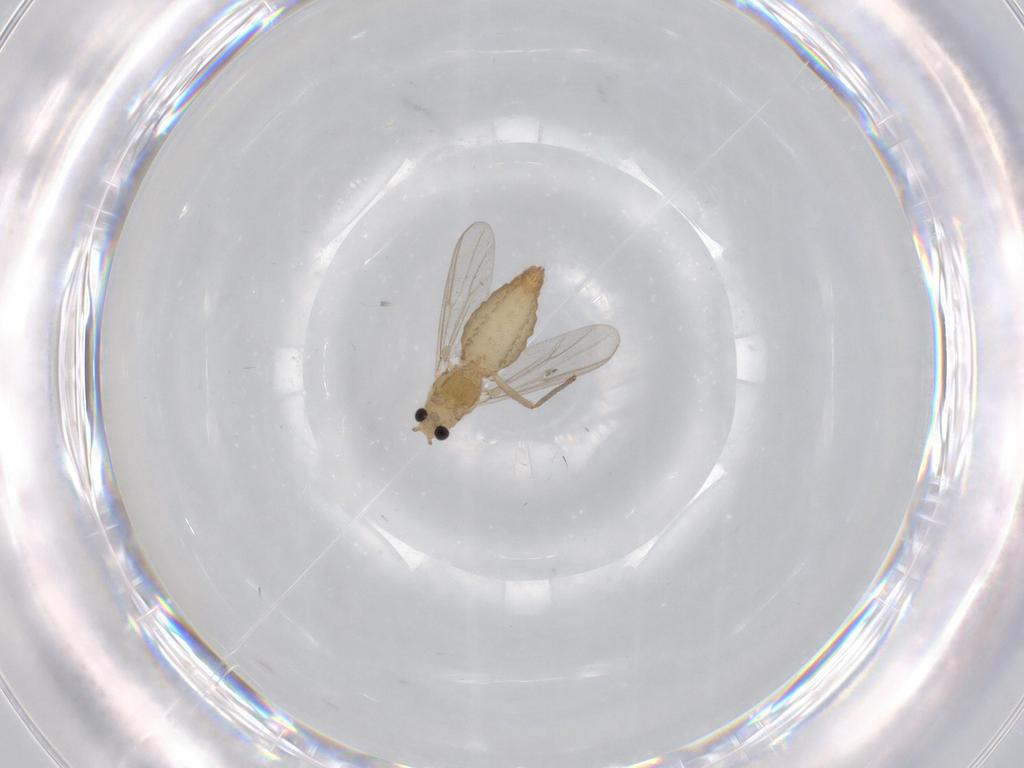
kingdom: Animalia
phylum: Arthropoda
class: Insecta
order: Diptera
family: Chironomidae
